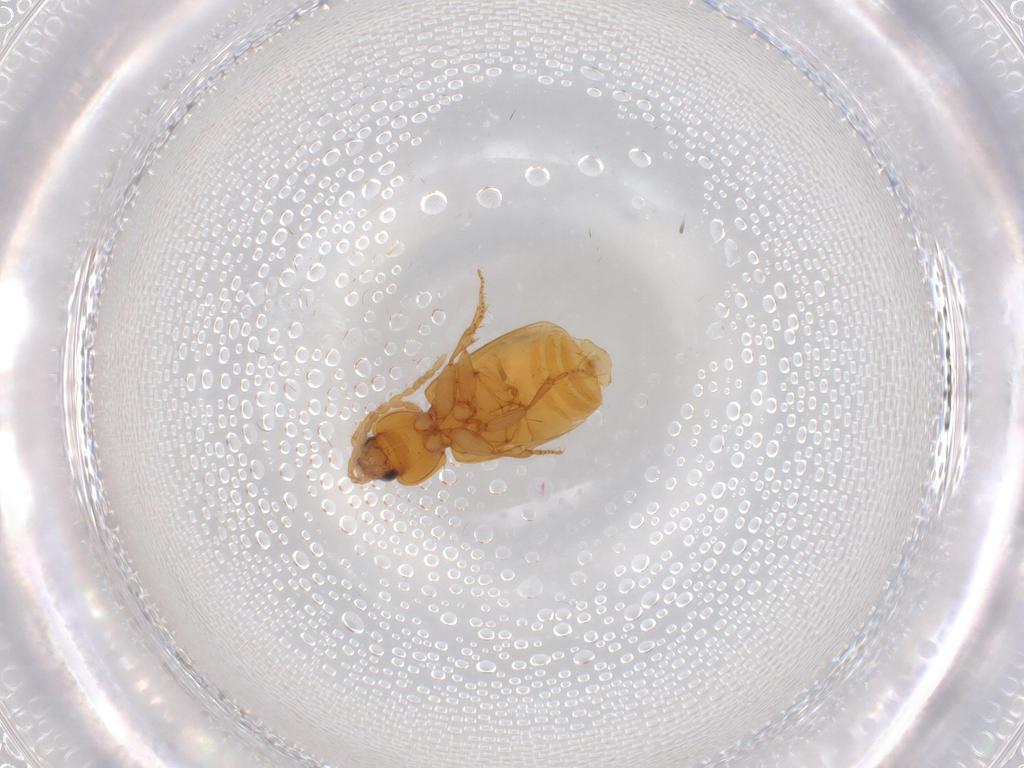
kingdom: Animalia
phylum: Arthropoda
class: Insecta
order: Coleoptera
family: Carabidae
